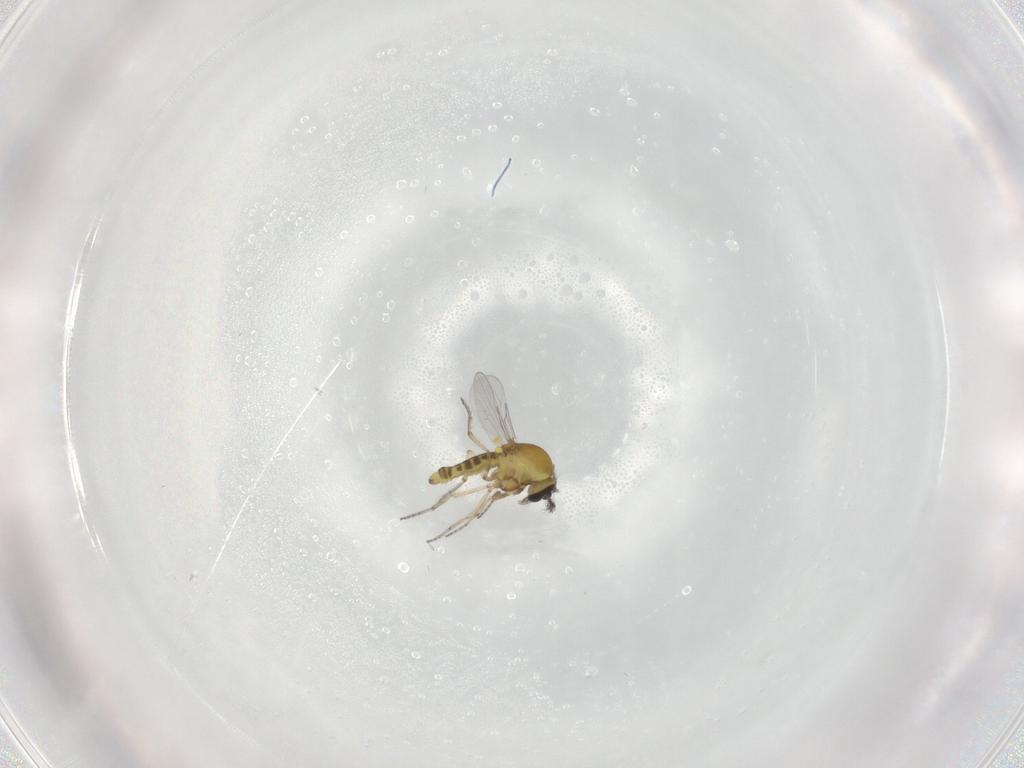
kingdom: Animalia
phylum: Arthropoda
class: Insecta
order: Diptera
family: Ceratopogonidae
